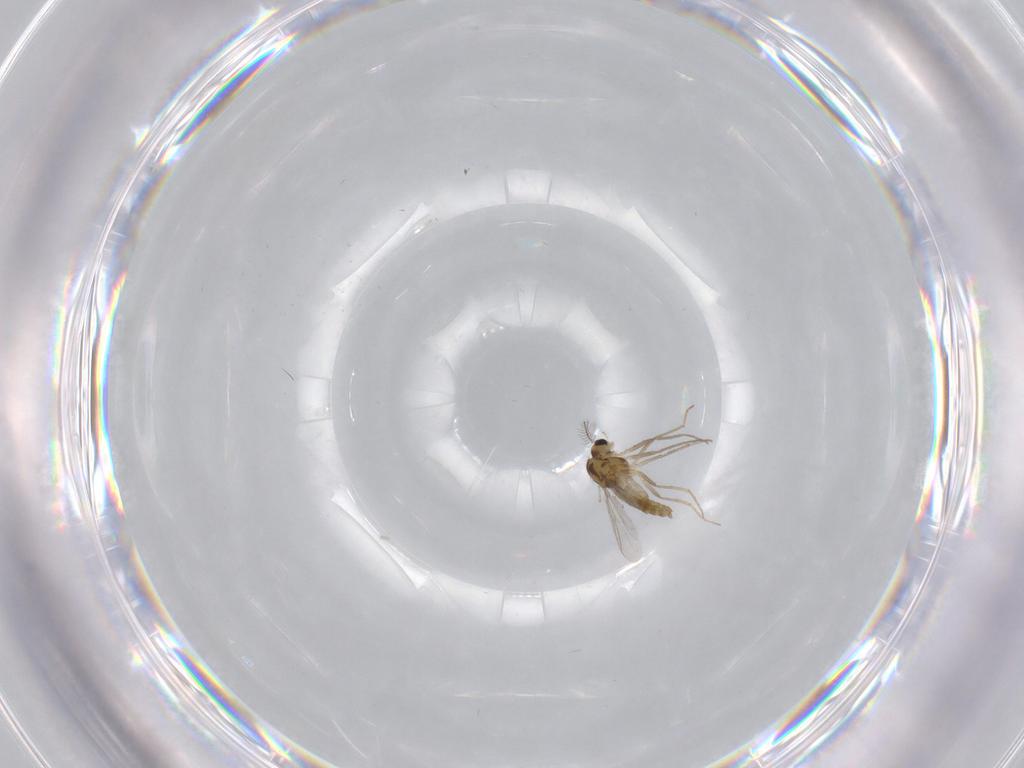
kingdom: Animalia
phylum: Arthropoda
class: Insecta
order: Diptera
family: Chironomidae
